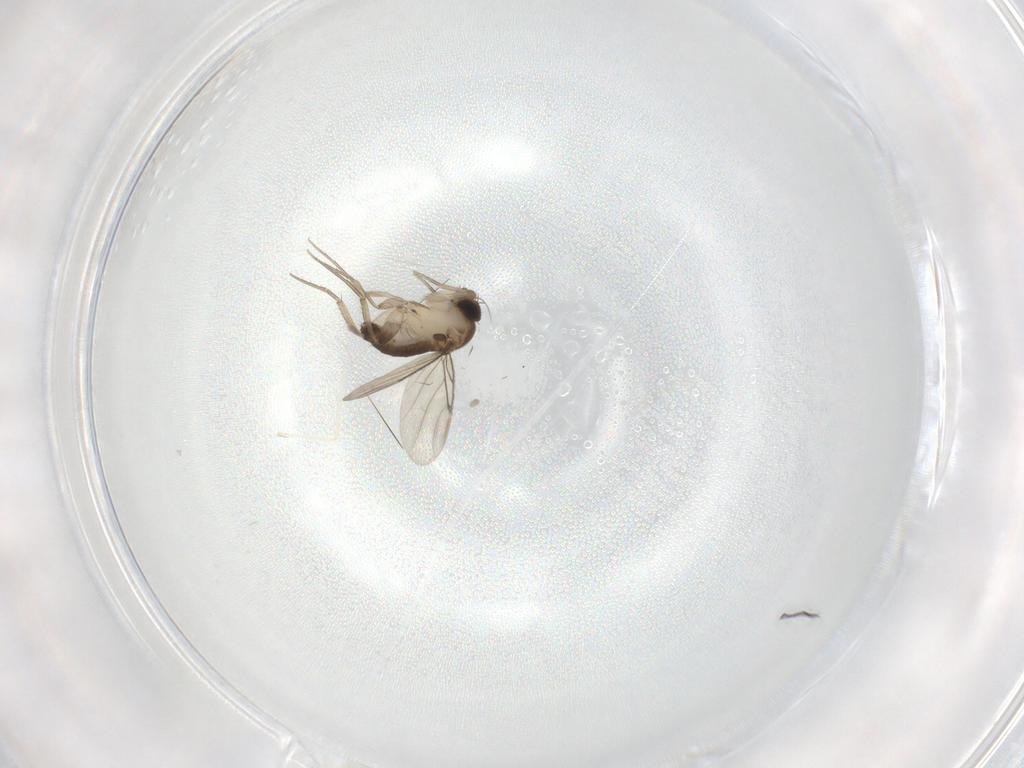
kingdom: Animalia
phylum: Arthropoda
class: Insecta
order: Diptera
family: Phoridae
